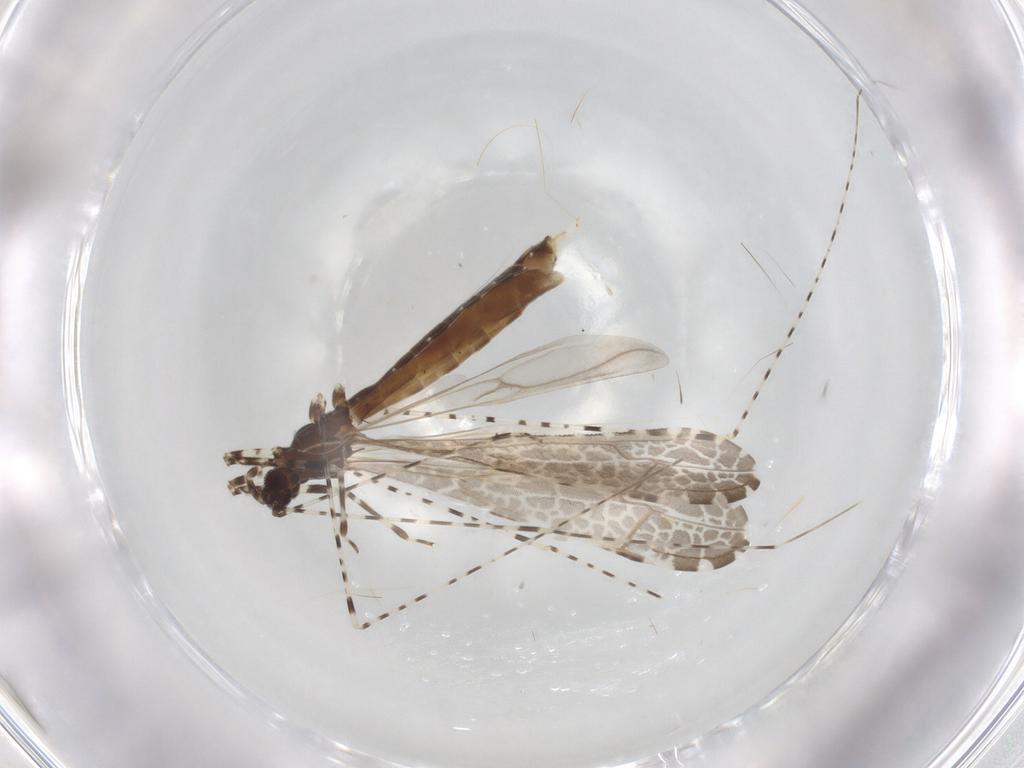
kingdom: Animalia
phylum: Arthropoda
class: Insecta
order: Hemiptera
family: Reduviidae
